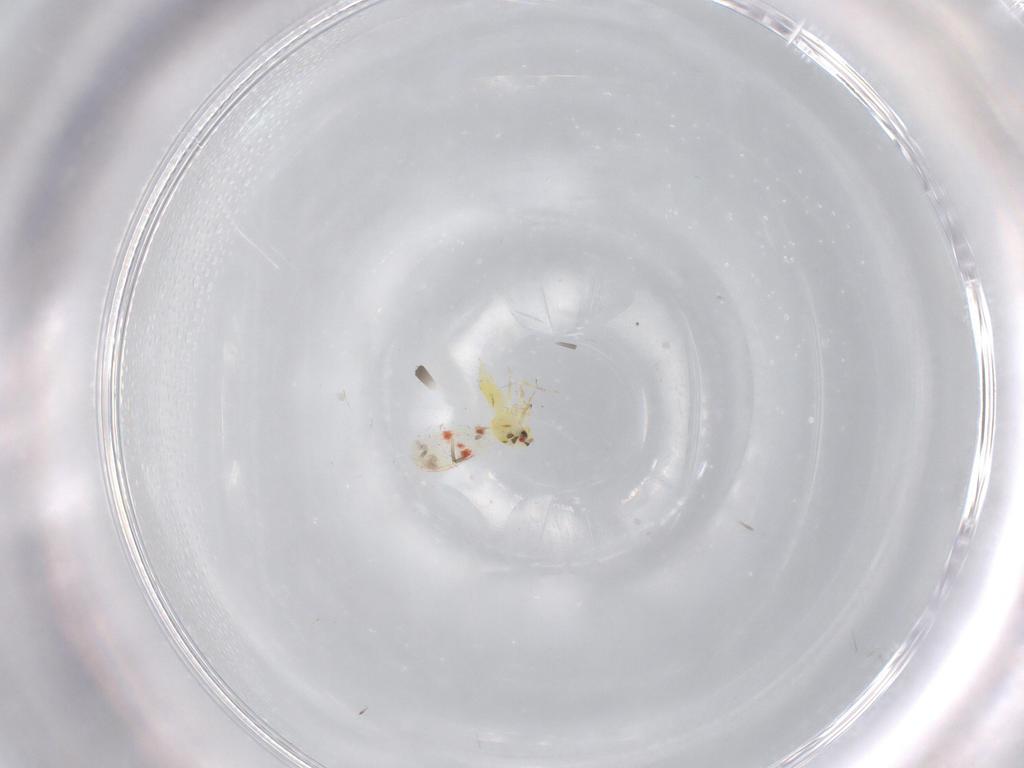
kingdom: Animalia
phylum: Arthropoda
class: Insecta
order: Hemiptera
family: Aleyrodidae
